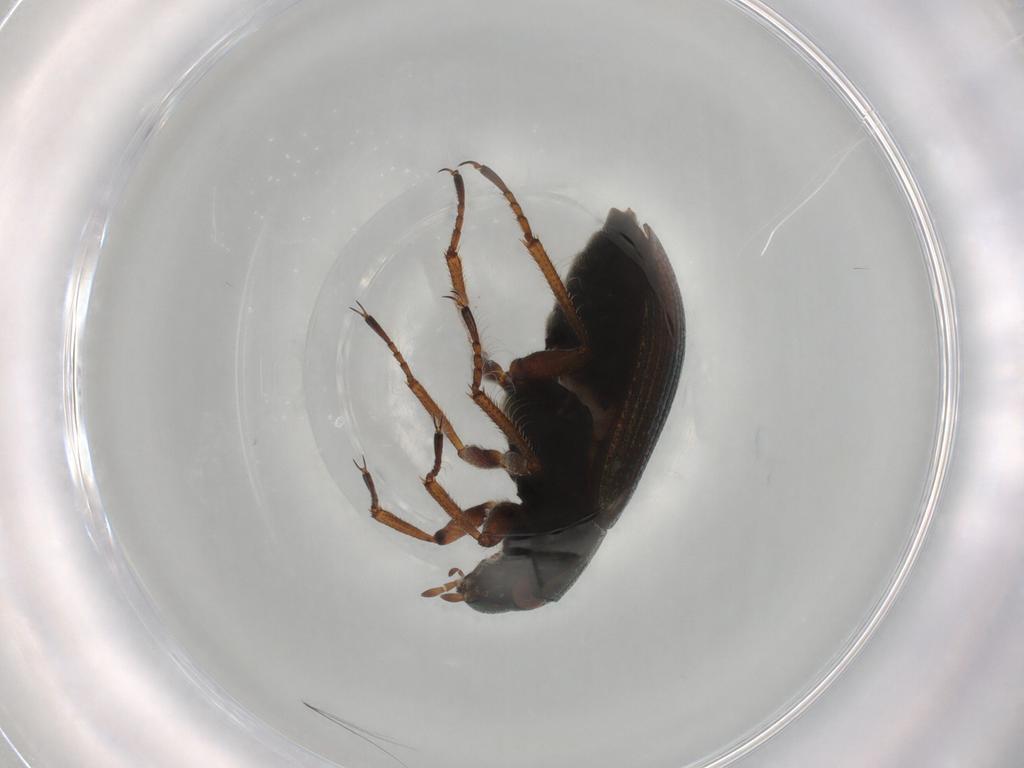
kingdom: Animalia
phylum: Arthropoda
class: Insecta
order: Coleoptera
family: Helophoridae
